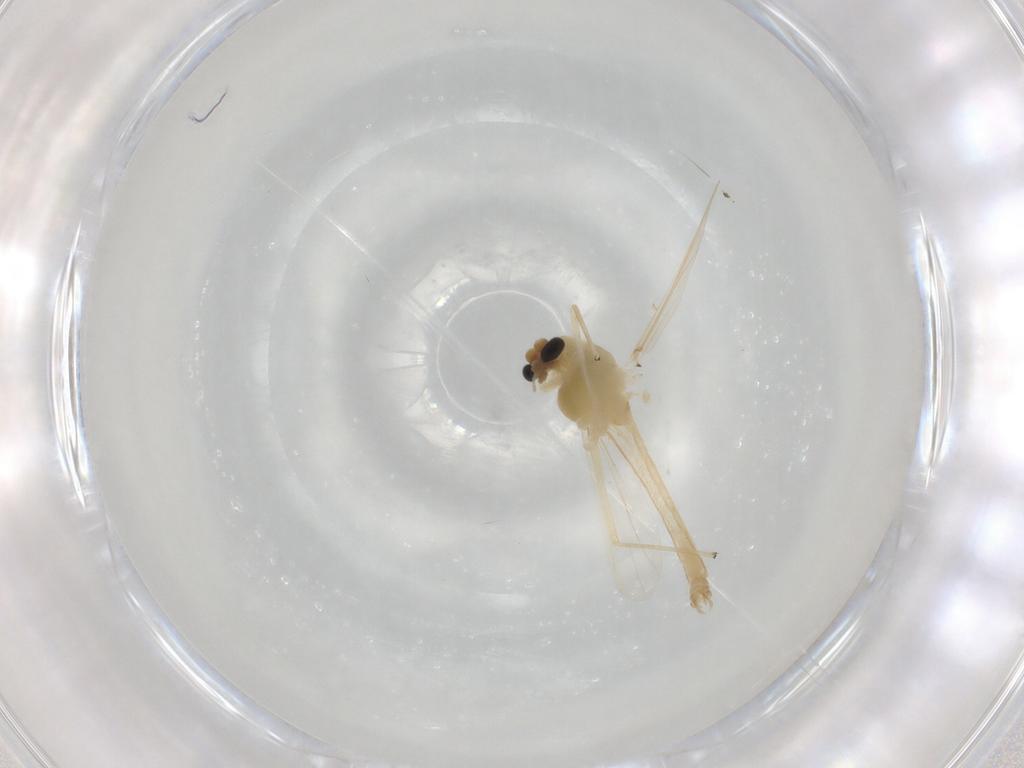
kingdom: Animalia
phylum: Arthropoda
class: Insecta
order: Diptera
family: Chironomidae
